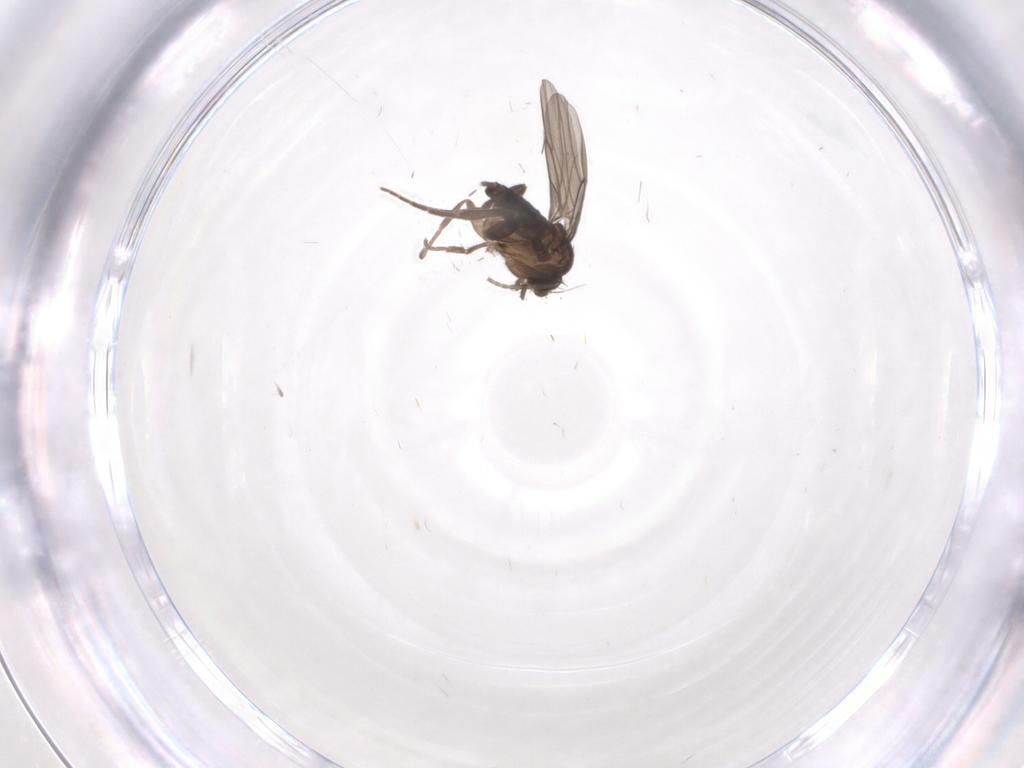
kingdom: Animalia
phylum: Arthropoda
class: Insecta
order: Diptera
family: Phoridae
